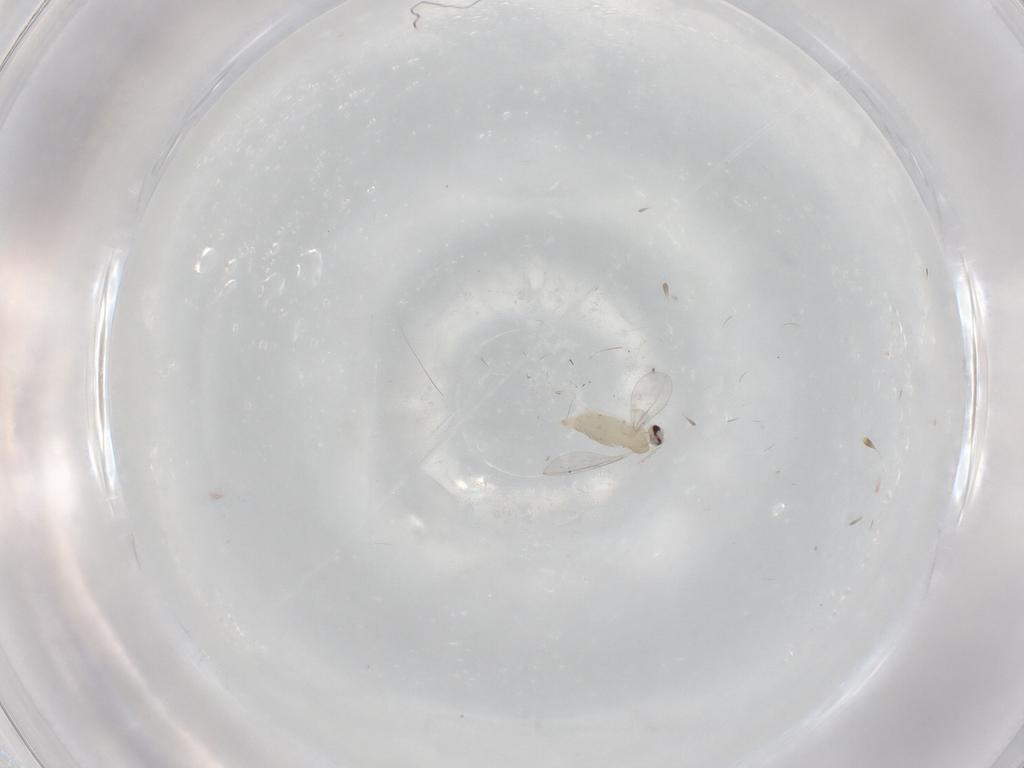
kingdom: Animalia
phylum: Arthropoda
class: Insecta
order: Diptera
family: Cecidomyiidae
